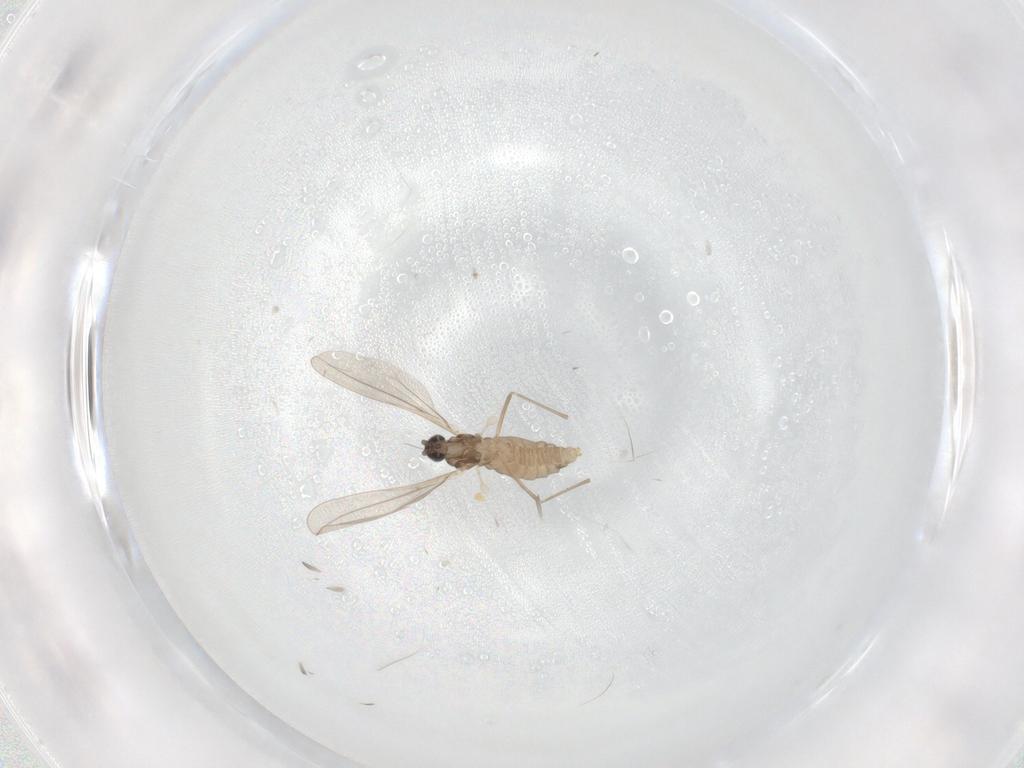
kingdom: Animalia
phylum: Arthropoda
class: Insecta
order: Diptera
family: Cecidomyiidae
